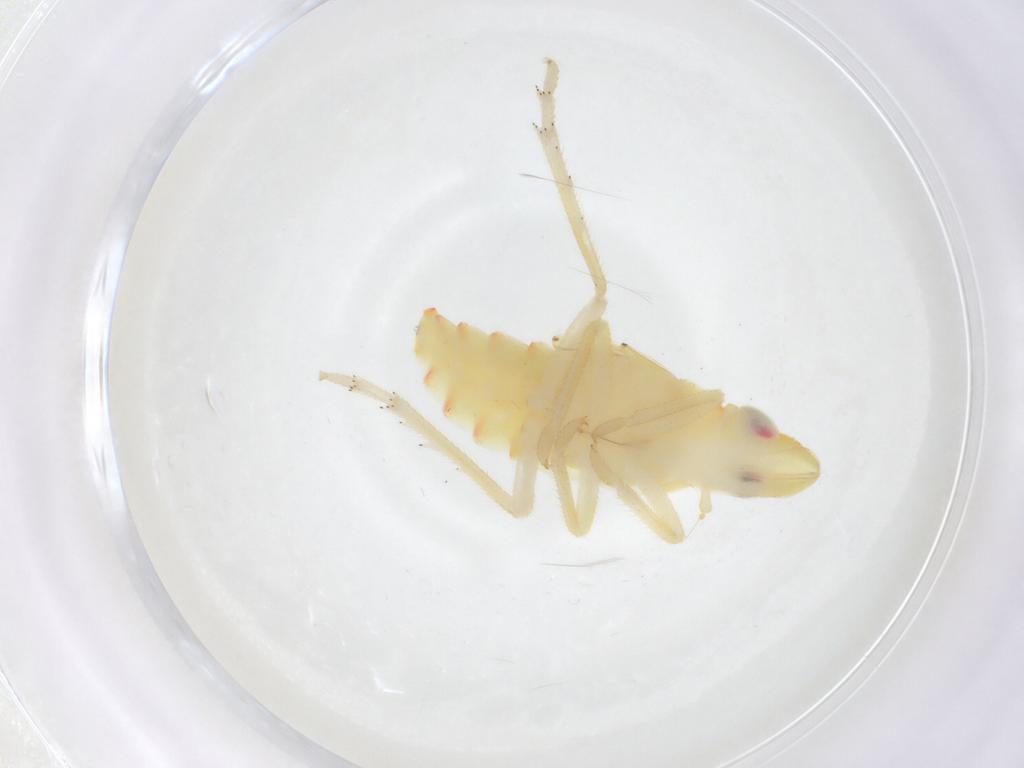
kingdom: Animalia
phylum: Arthropoda
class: Insecta
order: Hemiptera
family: Tropiduchidae
